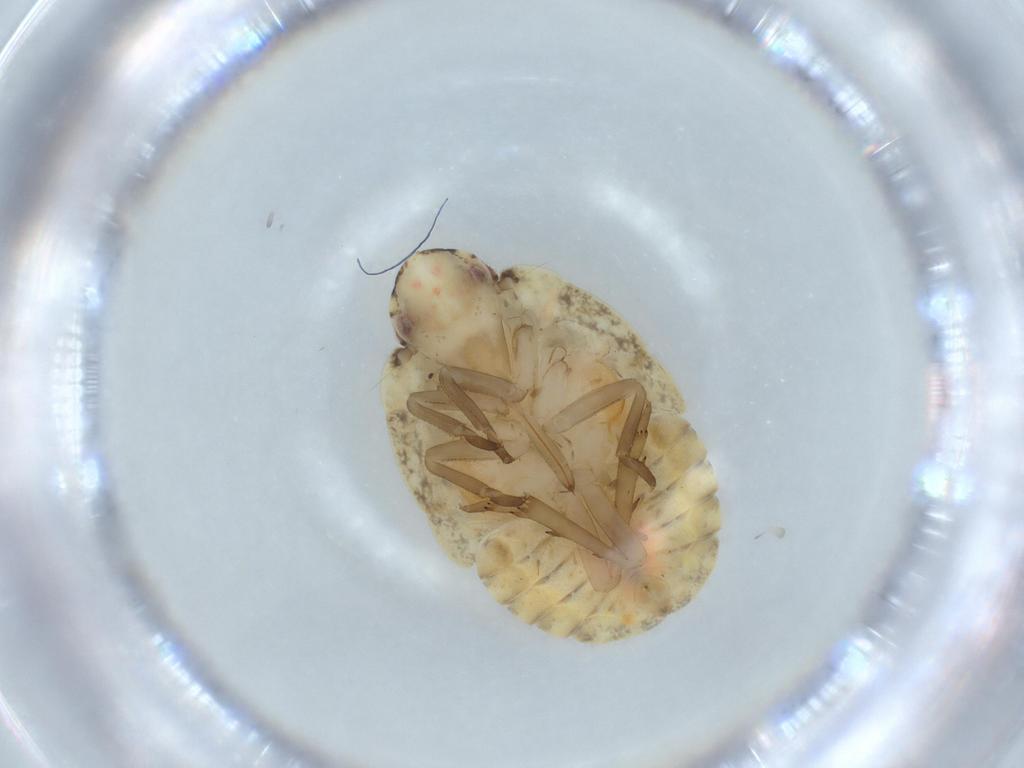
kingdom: Animalia
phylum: Arthropoda
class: Insecta
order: Hemiptera
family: Flatidae
